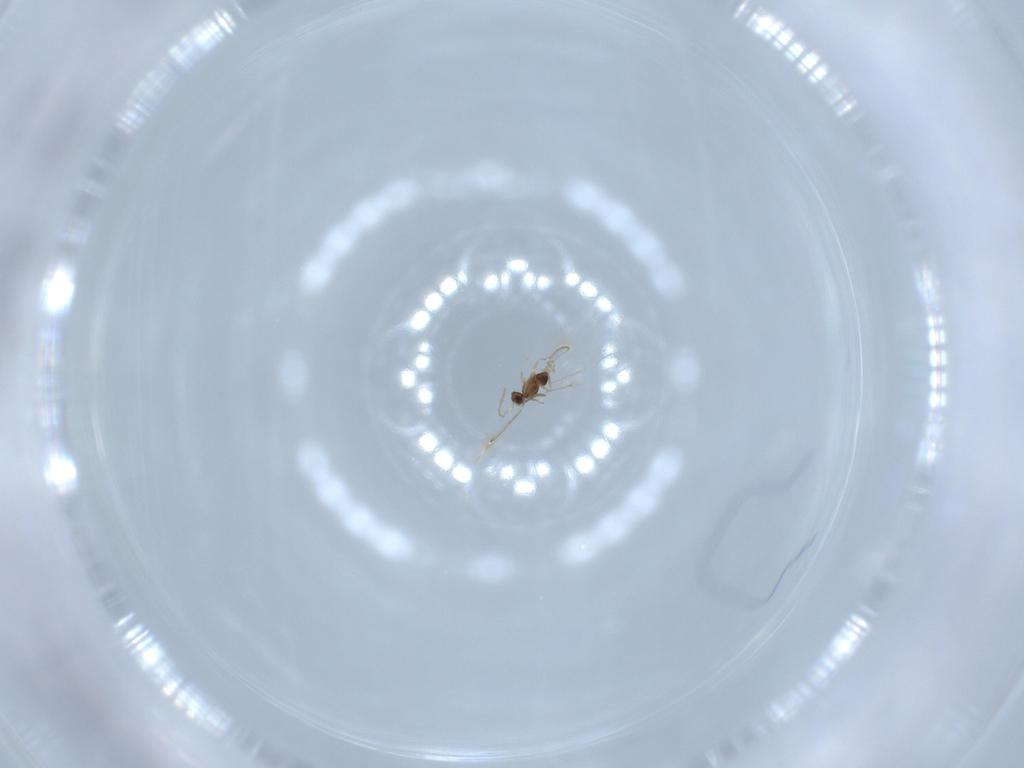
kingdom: Animalia
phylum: Arthropoda
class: Insecta
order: Hymenoptera
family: Mymaridae
